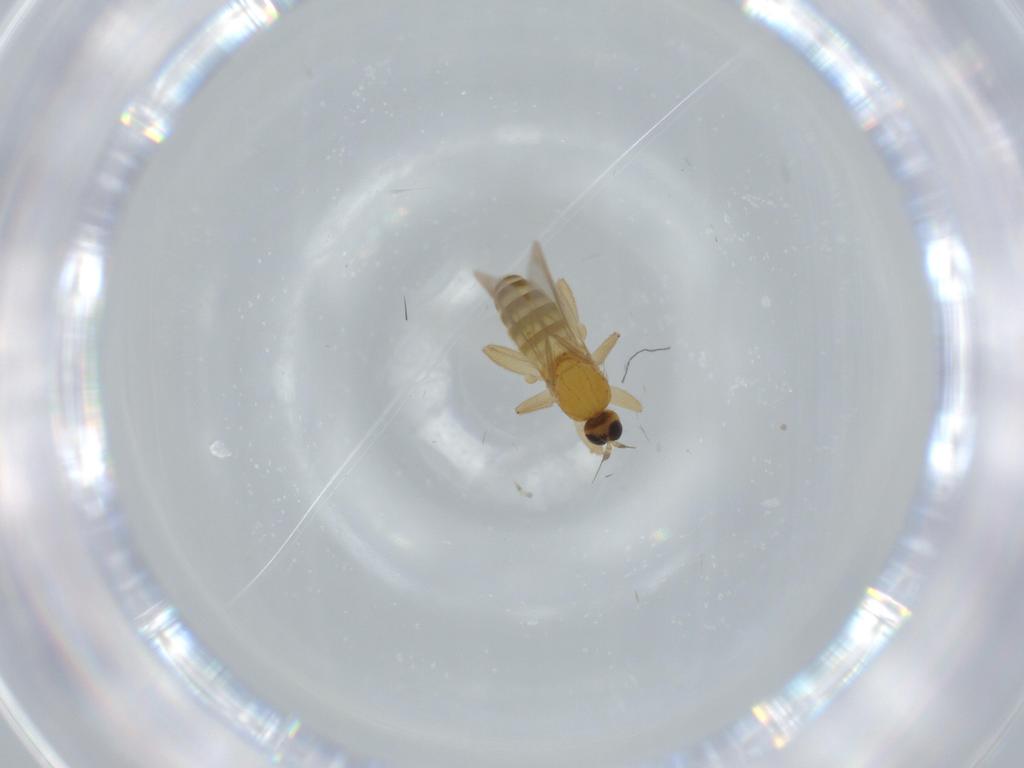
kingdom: Animalia
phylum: Arthropoda
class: Insecta
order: Diptera
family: Hybotidae
